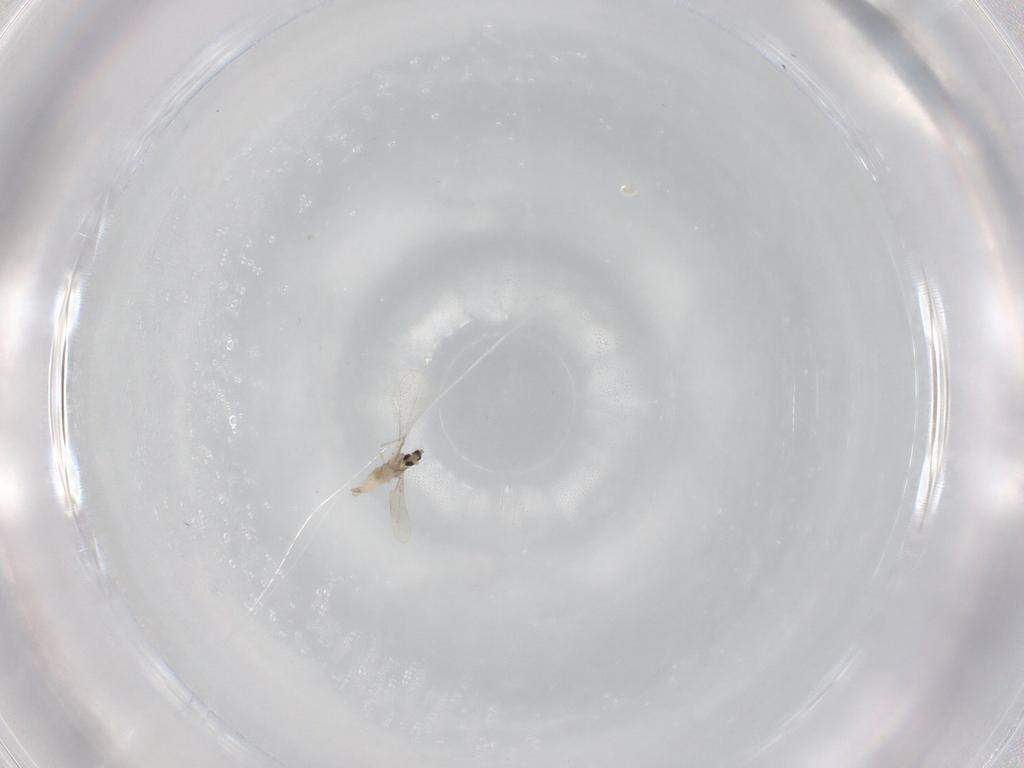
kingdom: Animalia
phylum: Arthropoda
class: Insecta
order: Diptera
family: Cecidomyiidae
